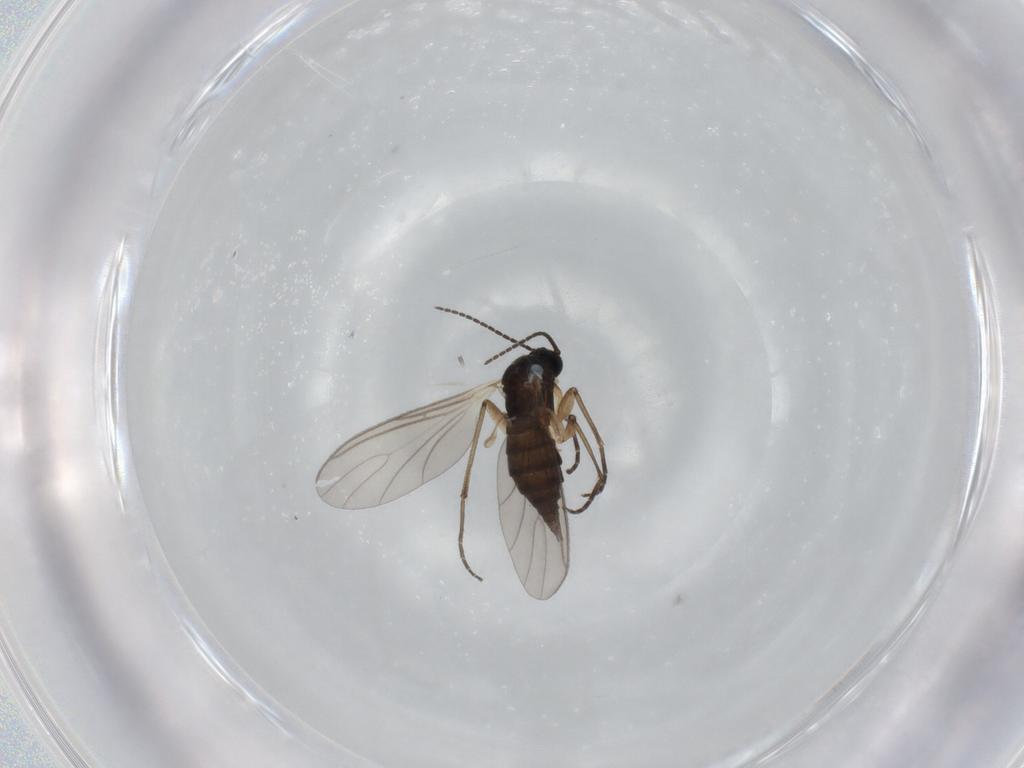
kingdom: Animalia
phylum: Arthropoda
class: Insecta
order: Diptera
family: Sciaridae
